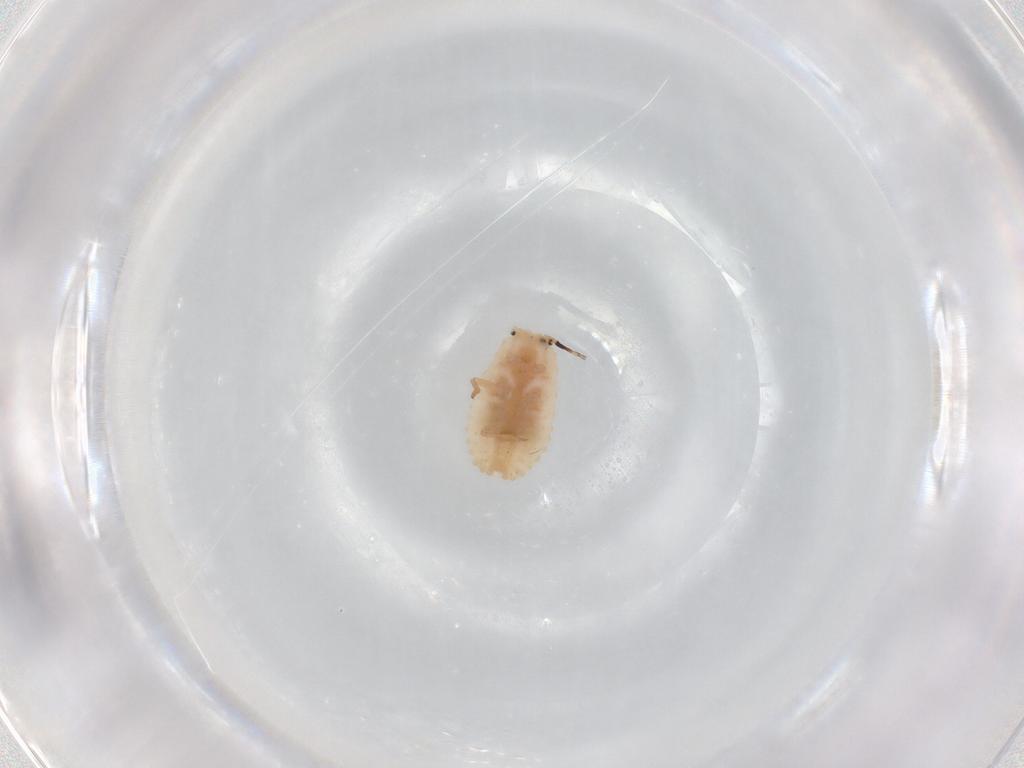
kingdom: Animalia
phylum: Arthropoda
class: Insecta
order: Hemiptera
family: Coccoidea_incertae_sedis
